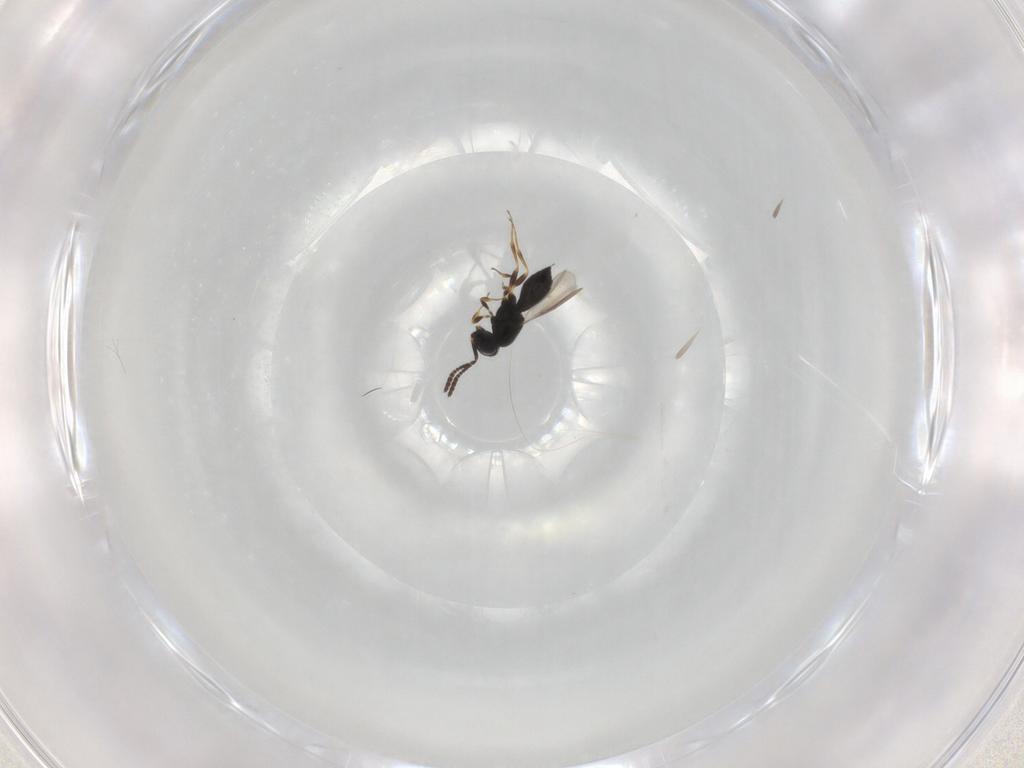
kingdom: Animalia
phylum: Arthropoda
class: Insecta
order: Hymenoptera
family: Scelionidae
